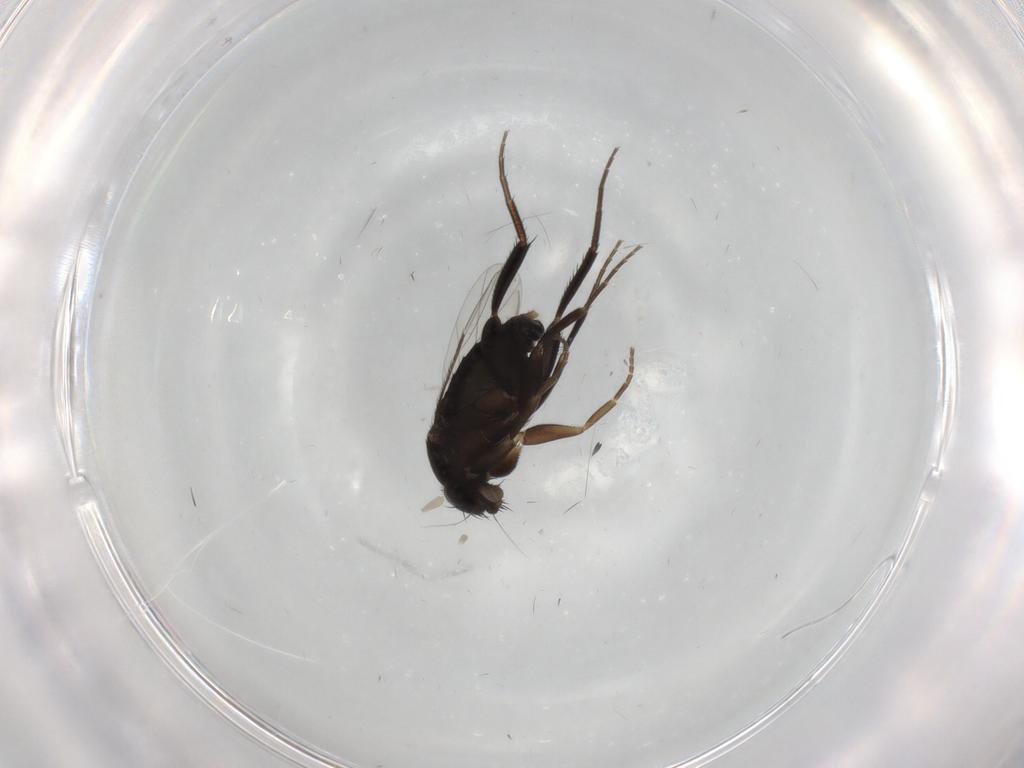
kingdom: Animalia
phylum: Arthropoda
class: Insecta
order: Diptera
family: Phoridae
